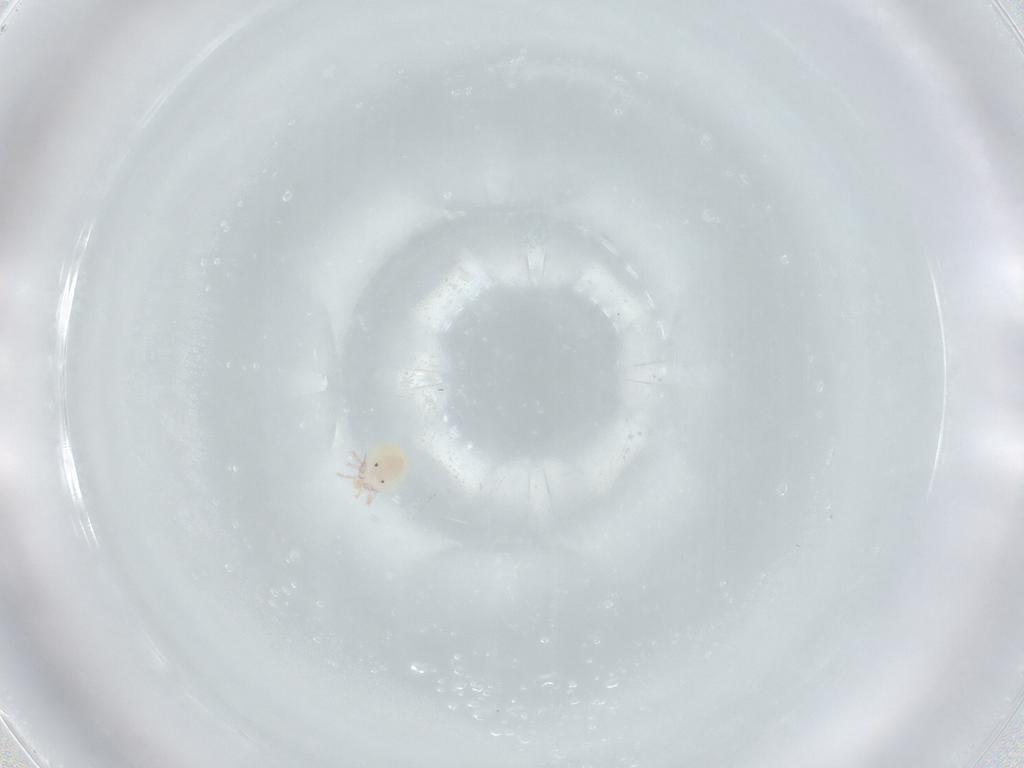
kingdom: Animalia
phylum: Arthropoda
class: Arachnida
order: Trombidiformes
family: Lebertiidae
